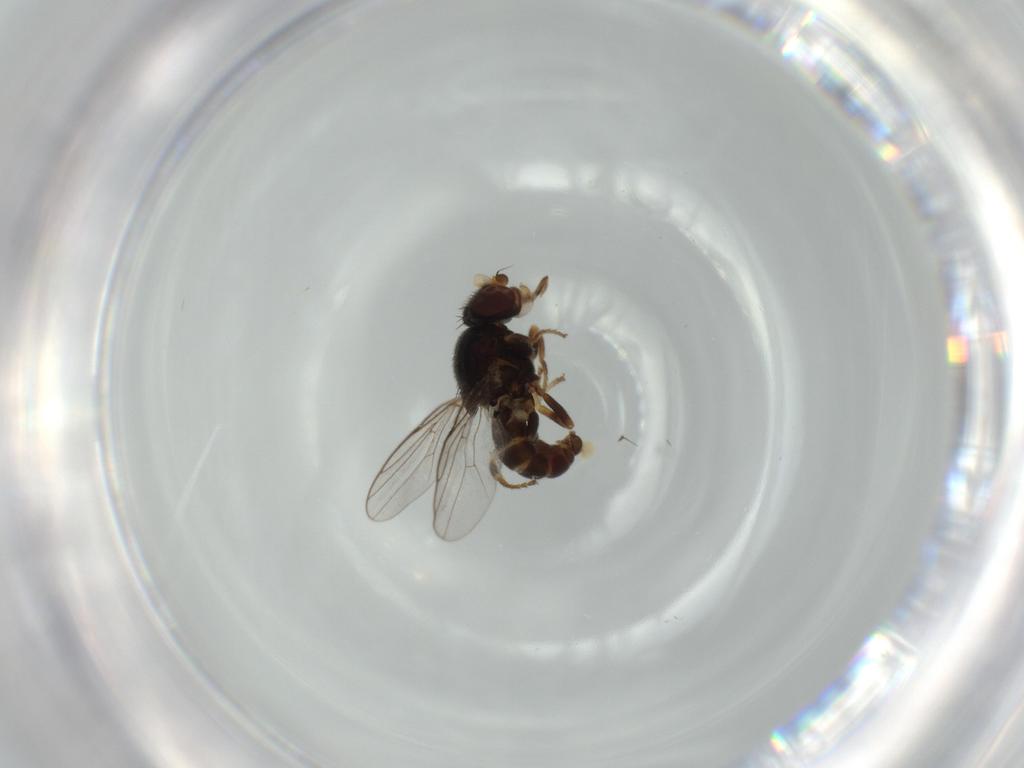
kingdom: Animalia
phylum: Arthropoda
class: Insecta
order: Diptera
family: Chloropidae
